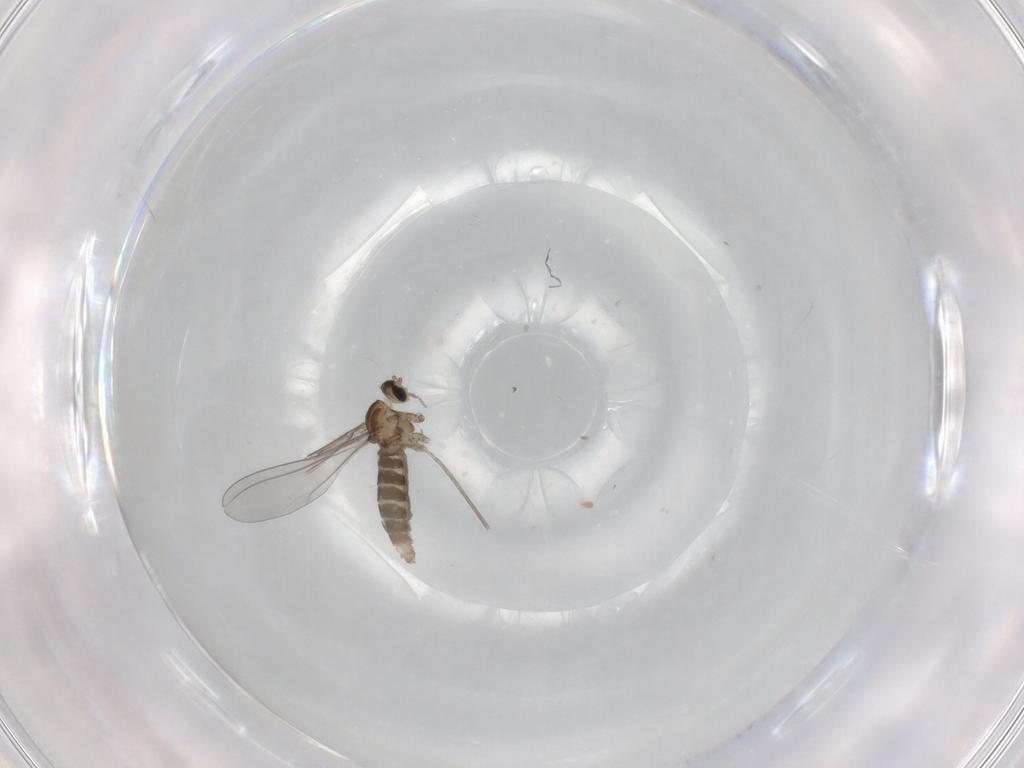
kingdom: Animalia
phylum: Arthropoda
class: Insecta
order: Diptera
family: Cecidomyiidae
